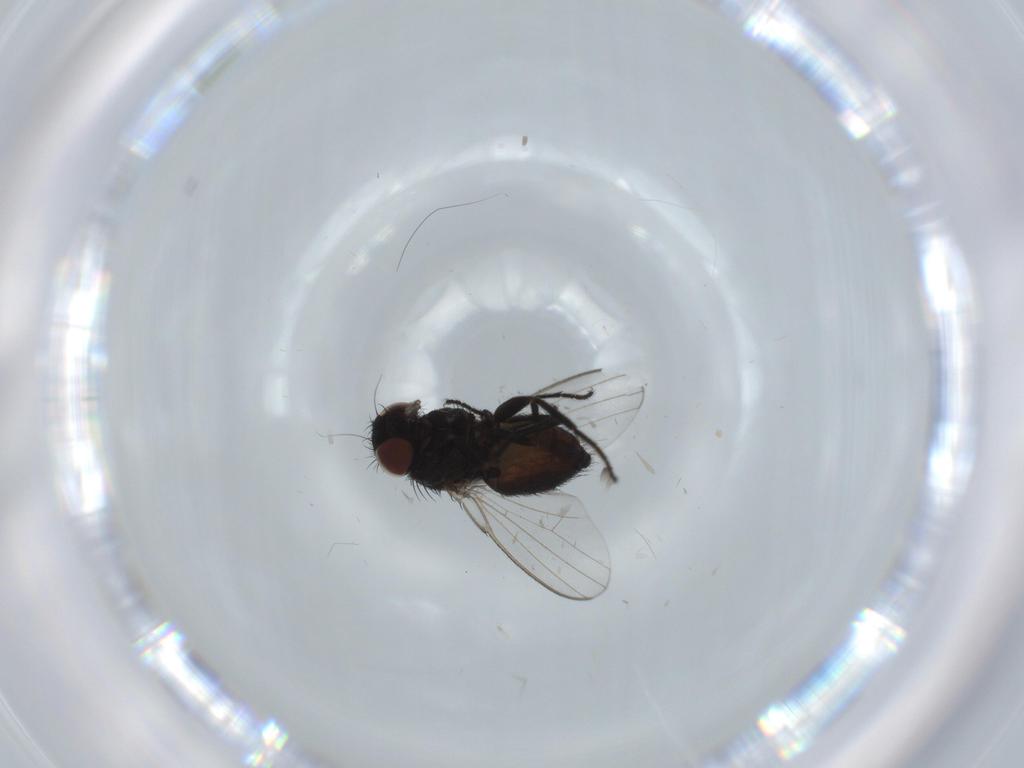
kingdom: Animalia
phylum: Arthropoda
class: Insecta
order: Diptera
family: Milichiidae
